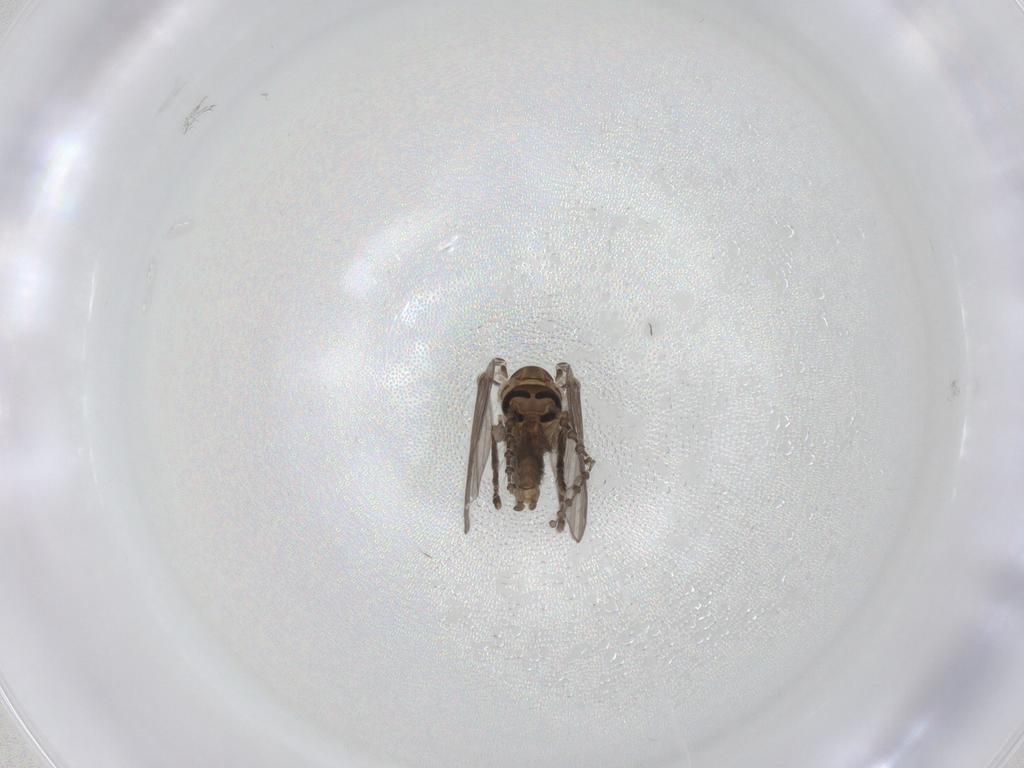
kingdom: Animalia
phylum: Arthropoda
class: Insecta
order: Diptera
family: Psychodidae
